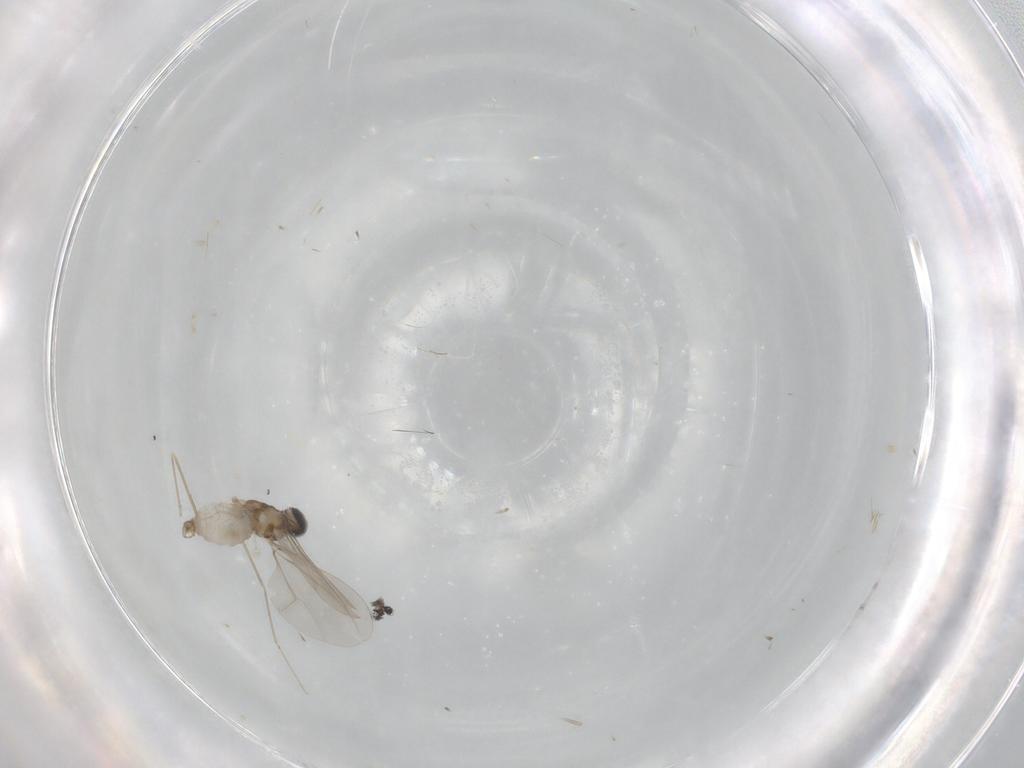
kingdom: Animalia
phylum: Arthropoda
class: Insecta
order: Diptera
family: Cecidomyiidae
